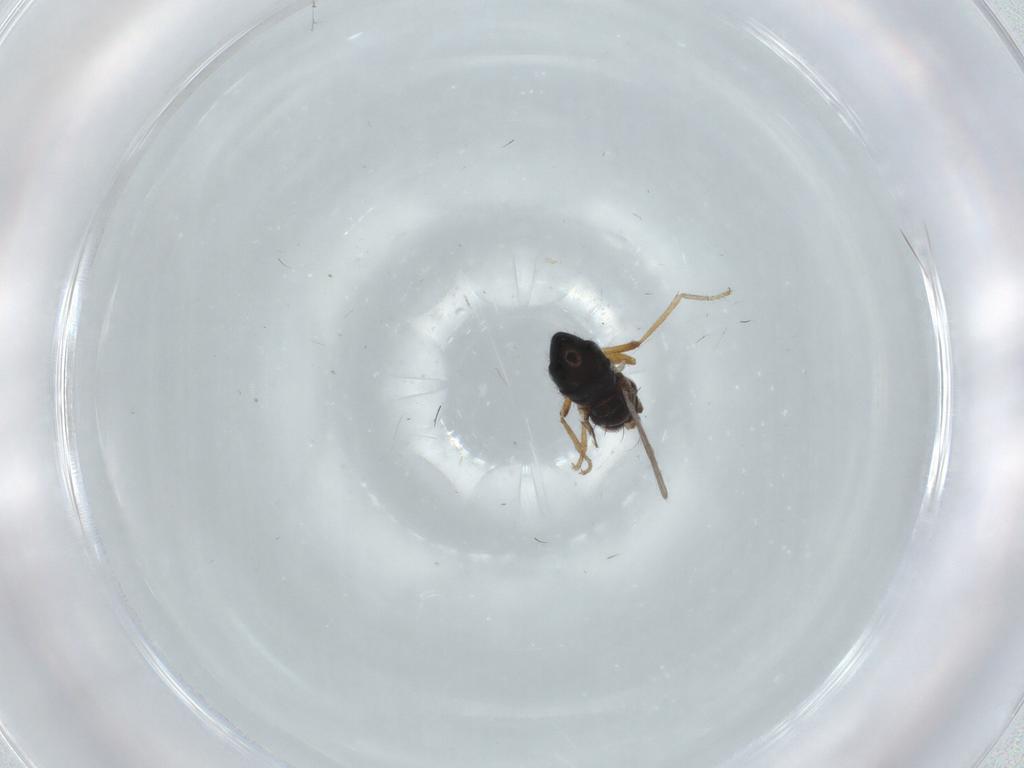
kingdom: Animalia
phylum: Arthropoda
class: Insecta
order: Diptera
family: Ephydridae
